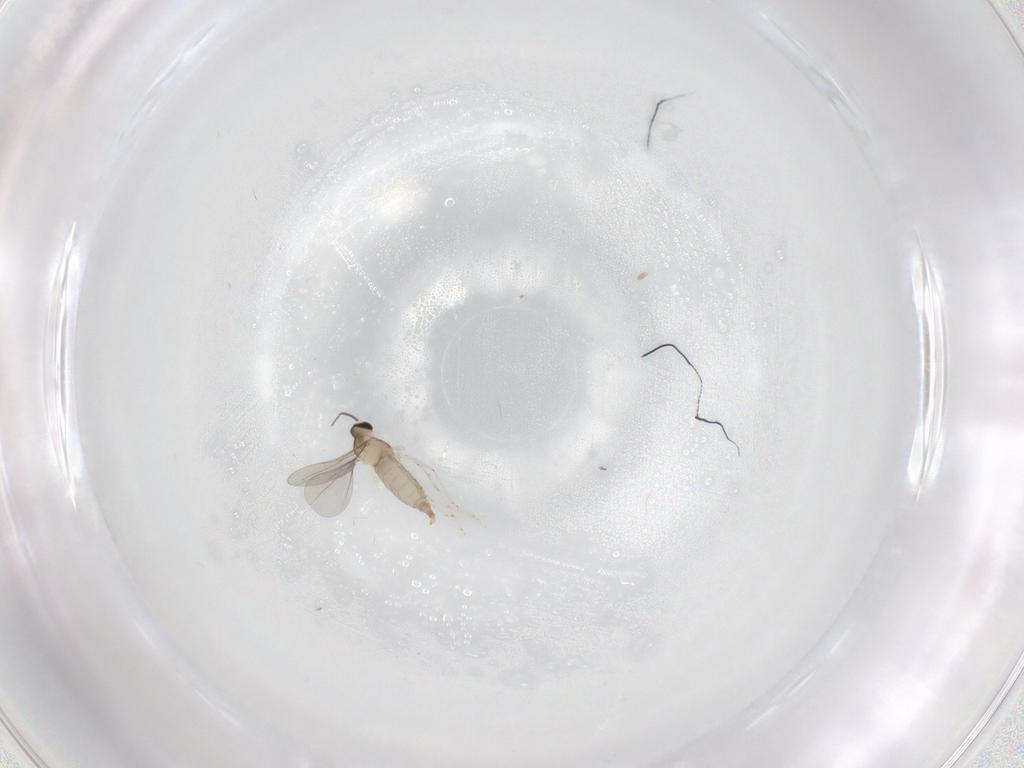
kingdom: Animalia
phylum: Arthropoda
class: Insecta
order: Diptera
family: Cecidomyiidae
